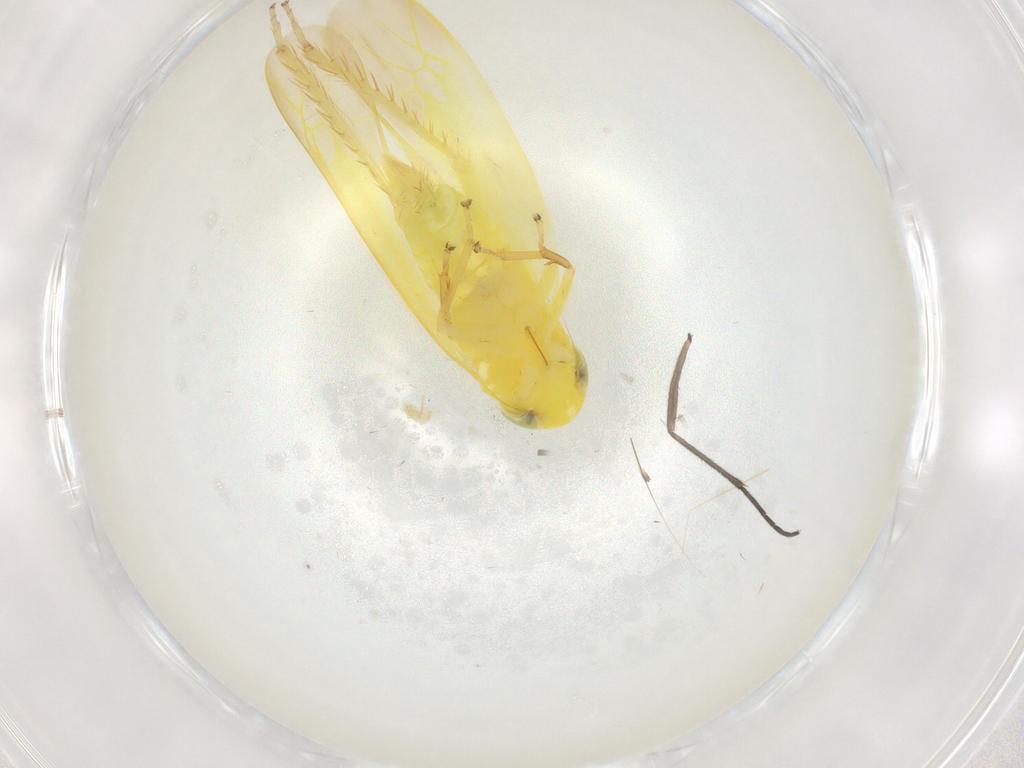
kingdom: Animalia
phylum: Arthropoda
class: Insecta
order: Hemiptera
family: Cicadellidae
